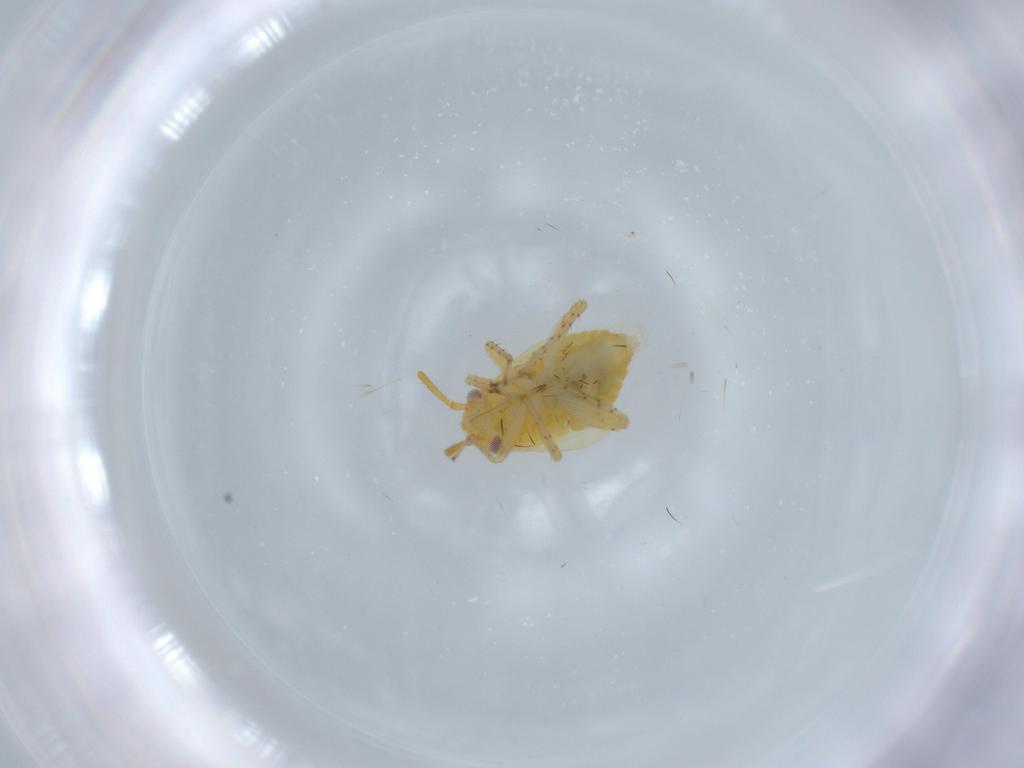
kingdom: Animalia
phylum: Arthropoda
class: Insecta
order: Hemiptera
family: Miridae
